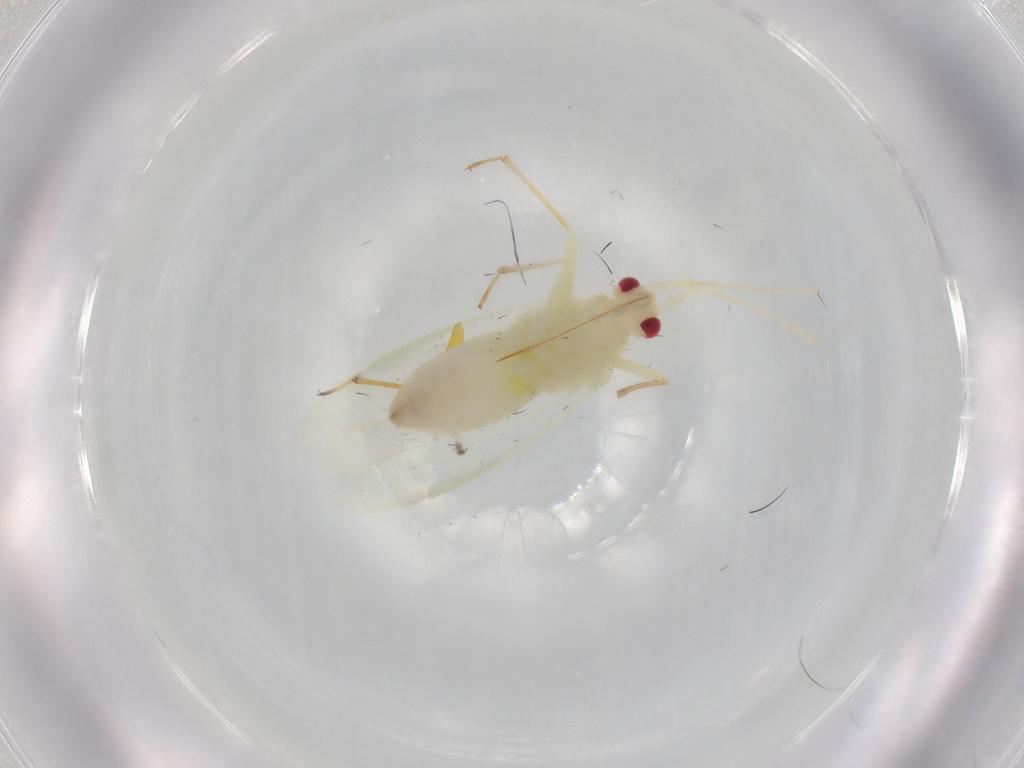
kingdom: Animalia
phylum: Arthropoda
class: Insecta
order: Hemiptera
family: Miridae
